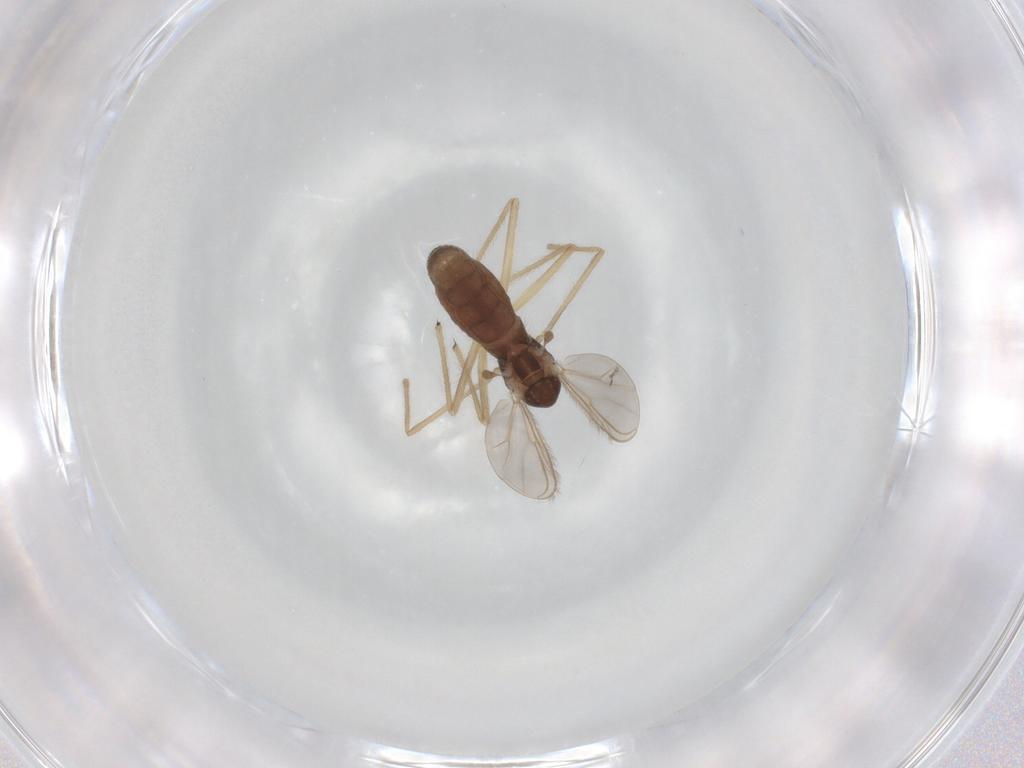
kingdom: Animalia
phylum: Arthropoda
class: Insecta
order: Diptera
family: Chironomidae
